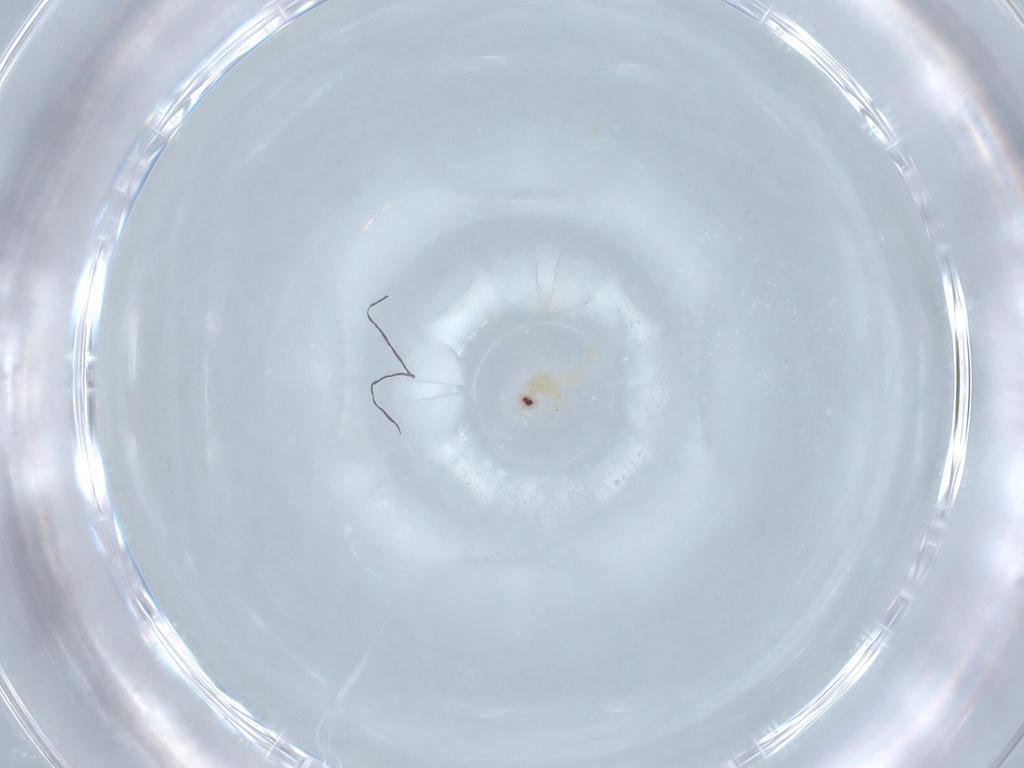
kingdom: Animalia
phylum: Arthropoda
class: Insecta
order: Hemiptera
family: Aleyrodidae
